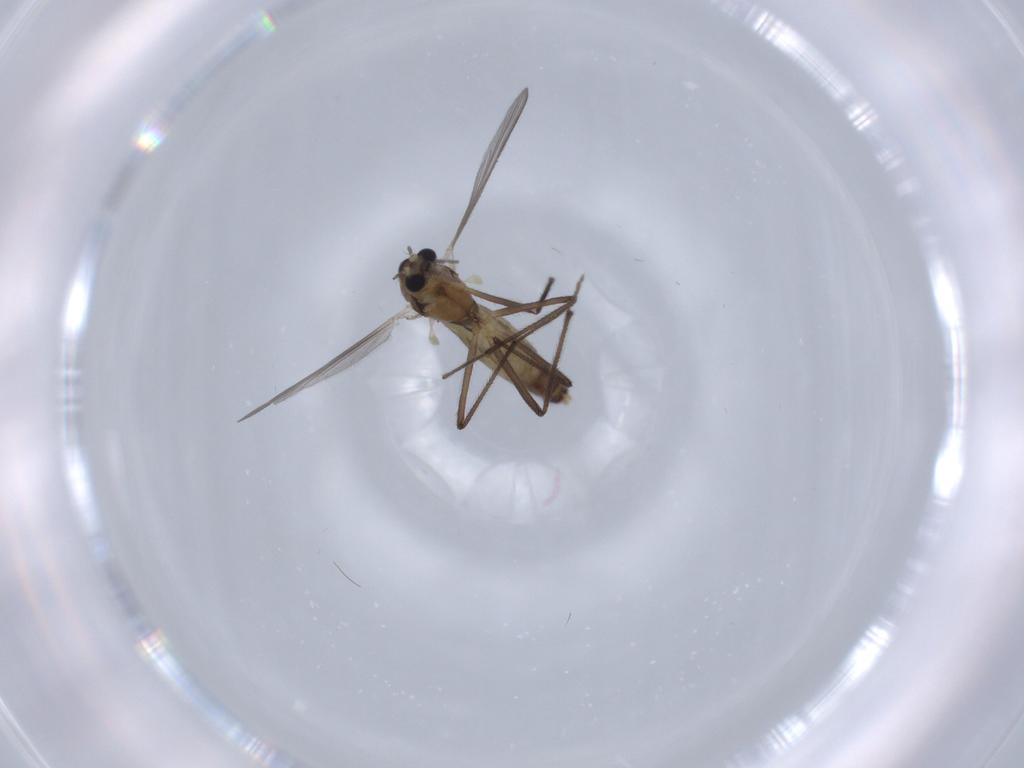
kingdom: Animalia
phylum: Arthropoda
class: Insecta
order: Diptera
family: Chironomidae
